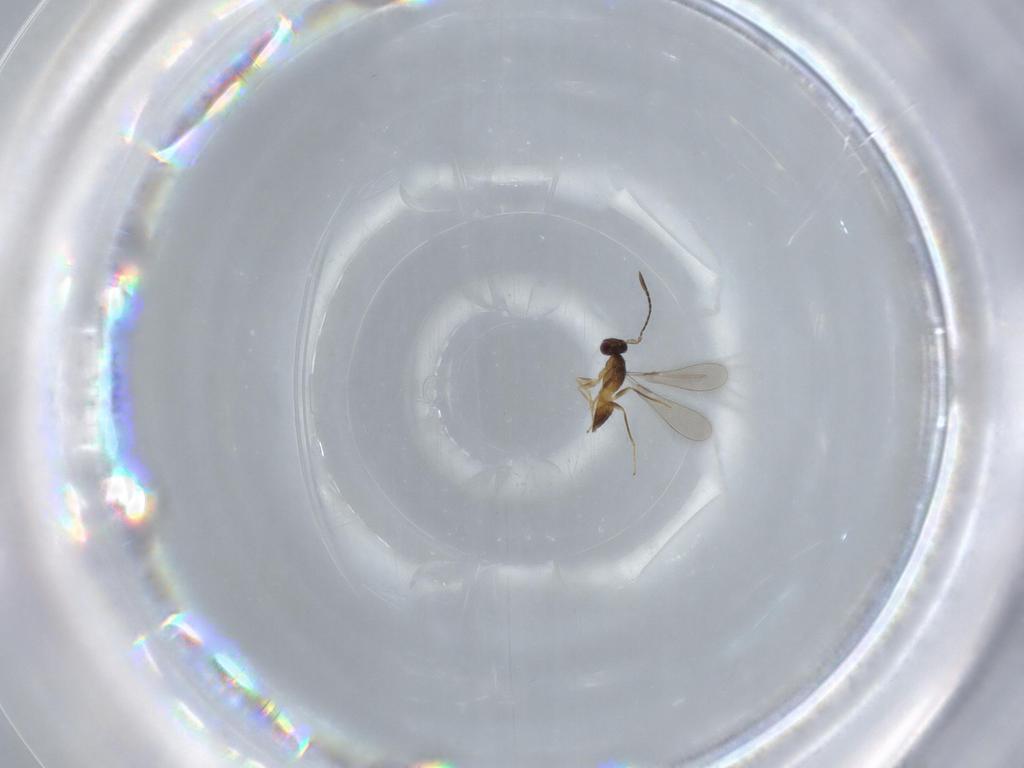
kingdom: Animalia
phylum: Arthropoda
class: Insecta
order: Hymenoptera
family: Mymaridae
